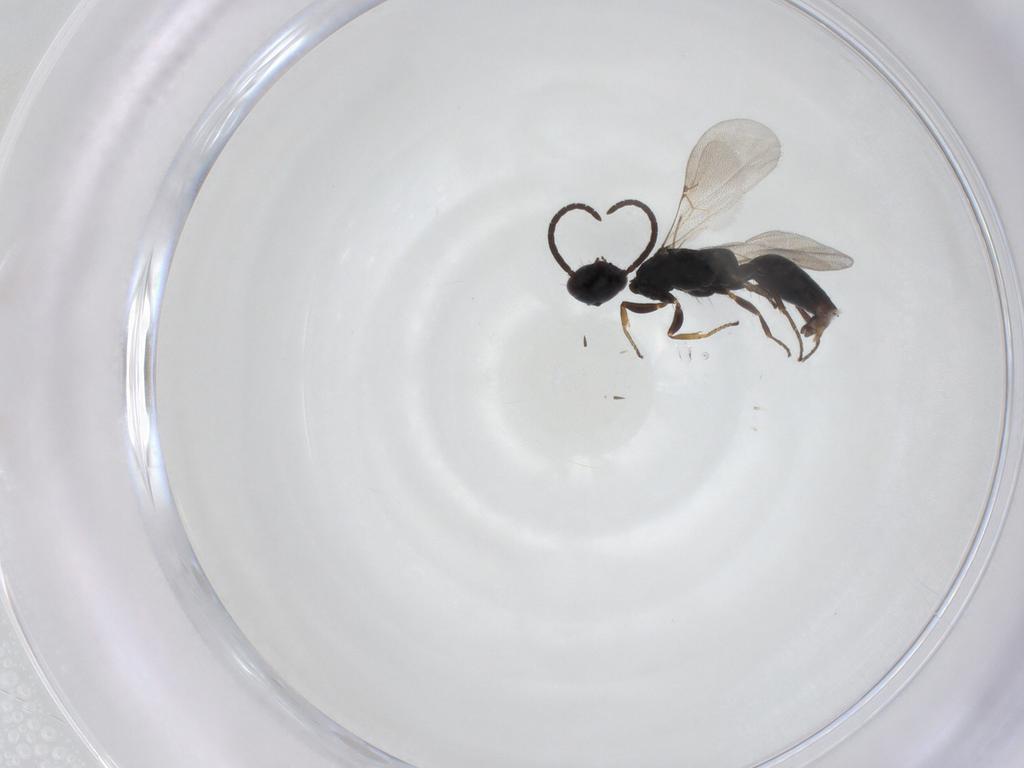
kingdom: Animalia
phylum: Arthropoda
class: Insecta
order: Hymenoptera
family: Bethylidae
